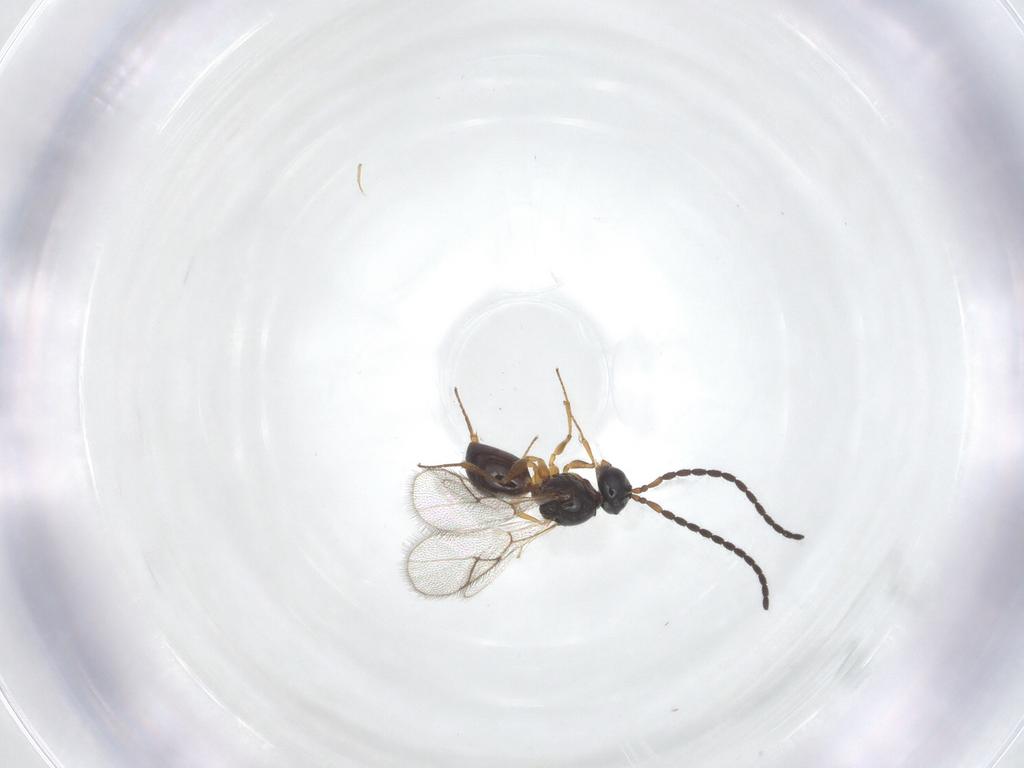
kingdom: Animalia
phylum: Arthropoda
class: Insecta
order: Hymenoptera
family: Figitidae
